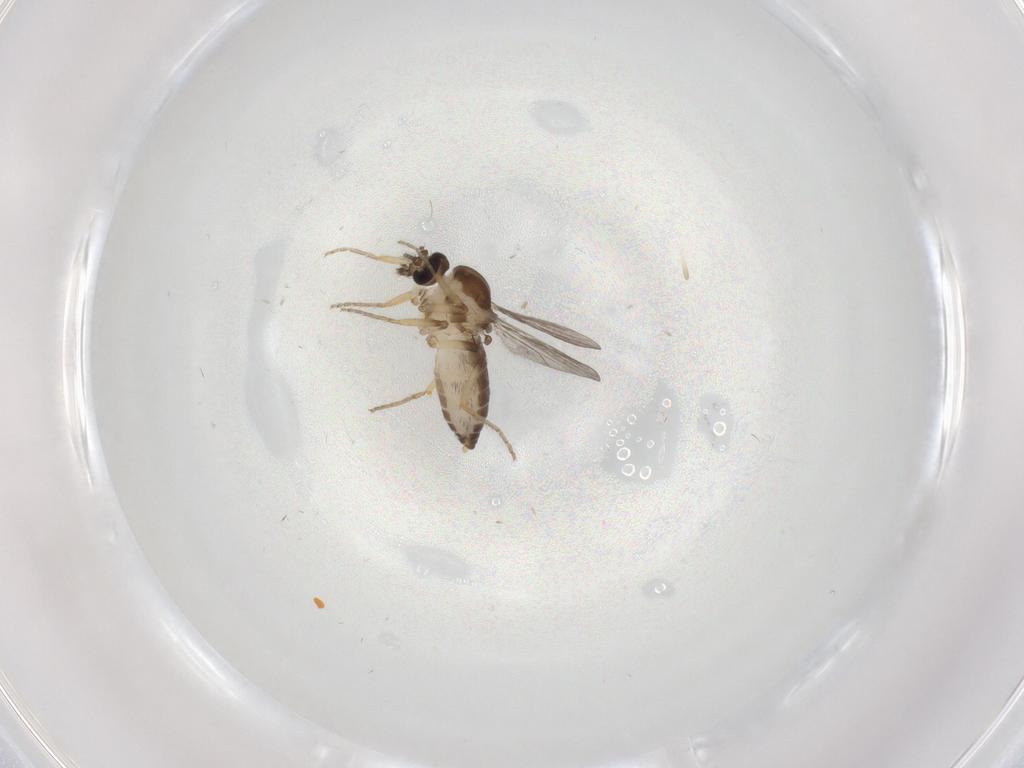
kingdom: Animalia
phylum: Arthropoda
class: Insecta
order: Diptera
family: Ceratopogonidae
